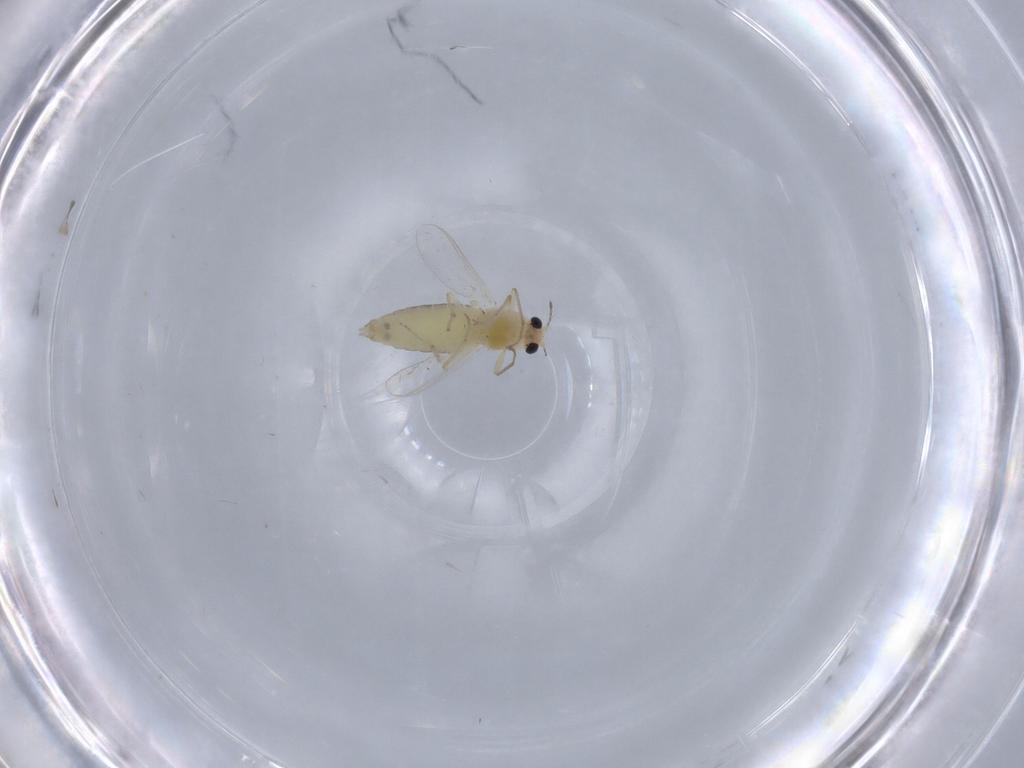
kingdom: Animalia
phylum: Arthropoda
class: Insecta
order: Diptera
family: Chironomidae
